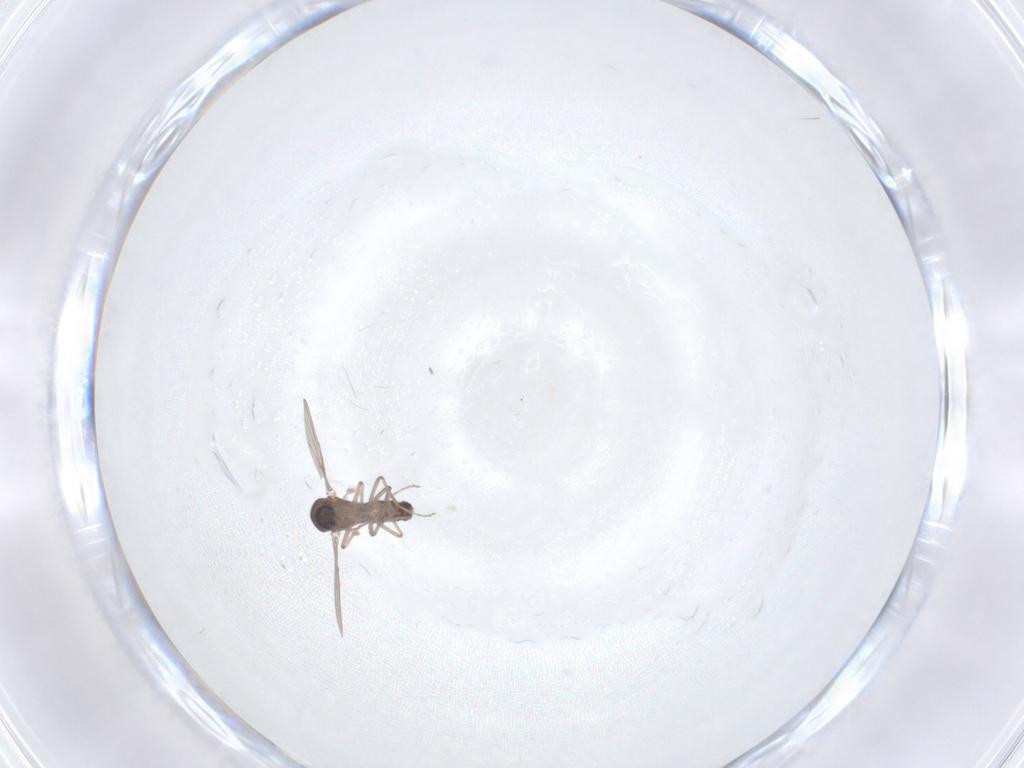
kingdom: Animalia
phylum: Arthropoda
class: Insecta
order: Diptera
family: Ceratopogonidae
